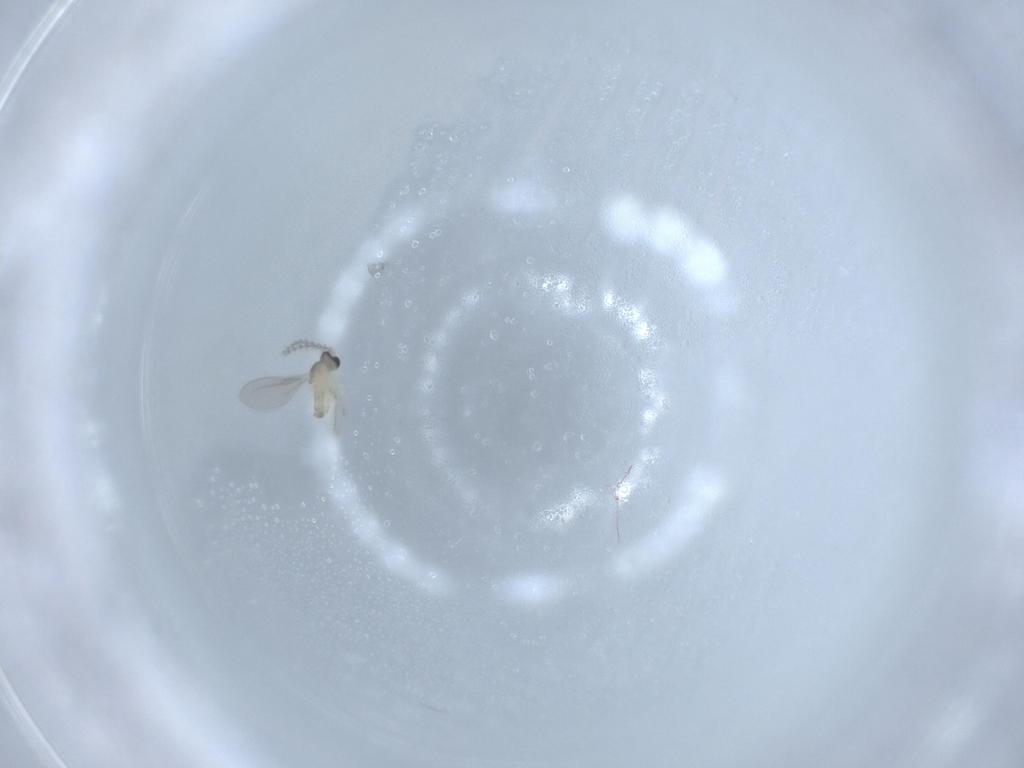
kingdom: Animalia
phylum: Arthropoda
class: Insecta
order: Diptera
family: Cecidomyiidae
